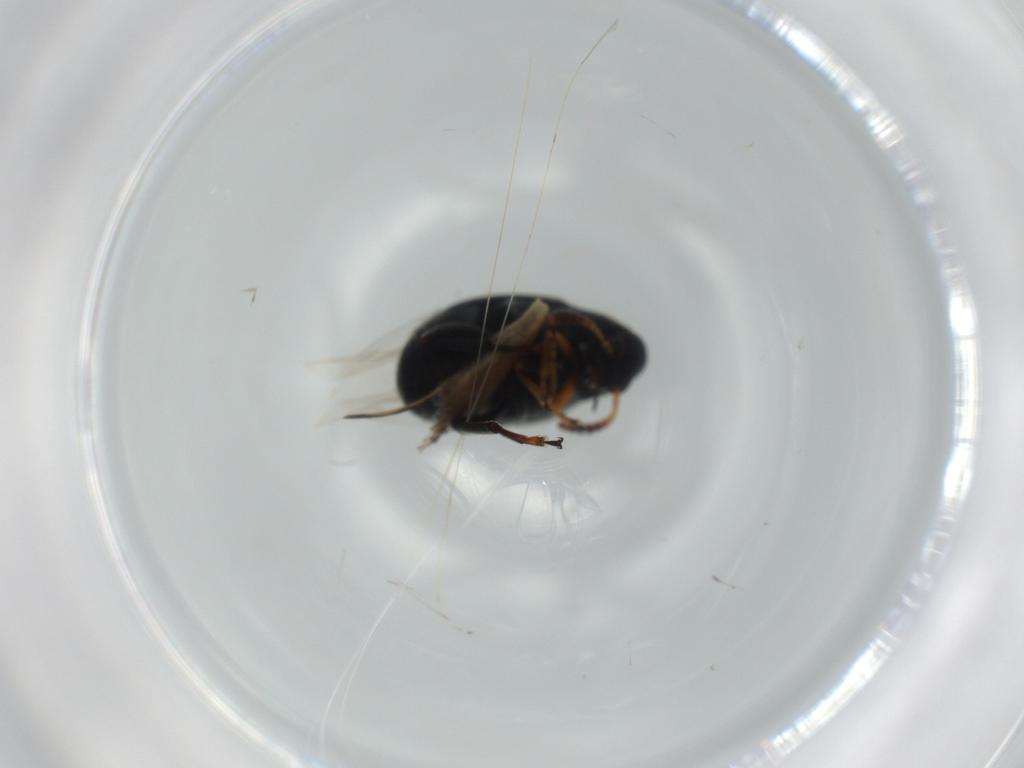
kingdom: Animalia
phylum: Arthropoda
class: Insecta
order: Coleoptera
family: Chrysomelidae
